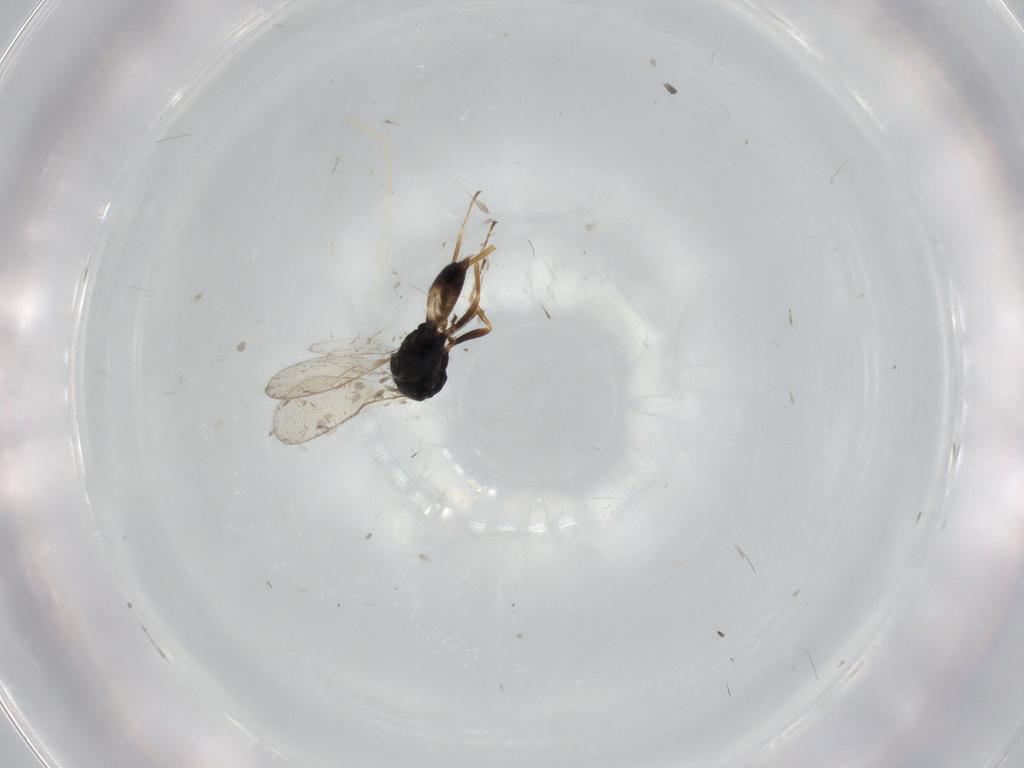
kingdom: Animalia
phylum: Arthropoda
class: Insecta
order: Hymenoptera
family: Pteromalidae
